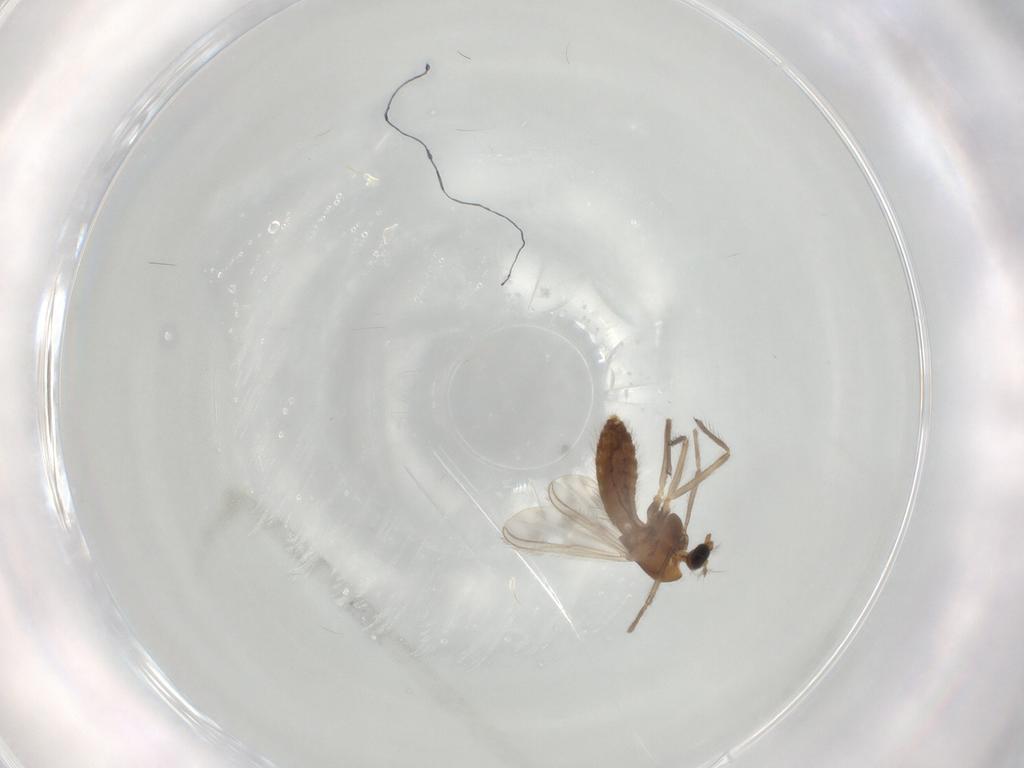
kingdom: Animalia
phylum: Arthropoda
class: Insecta
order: Diptera
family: Chironomidae
